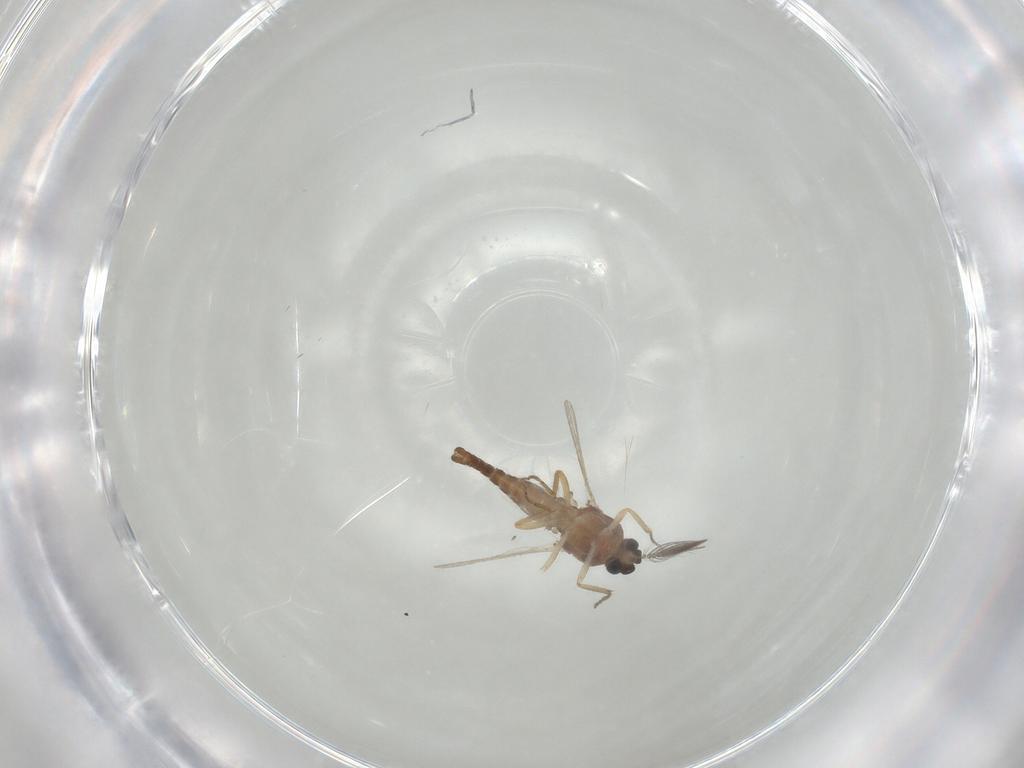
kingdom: Animalia
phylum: Arthropoda
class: Insecta
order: Diptera
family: Ceratopogonidae
